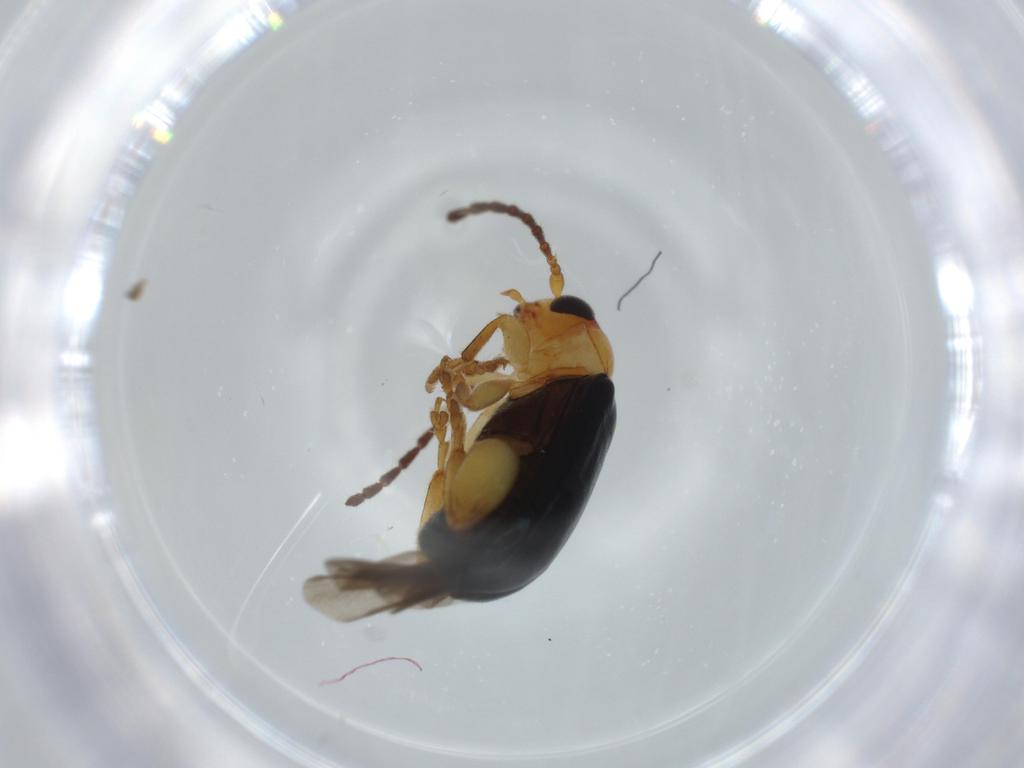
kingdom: Animalia
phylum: Arthropoda
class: Insecta
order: Coleoptera
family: Chrysomelidae
